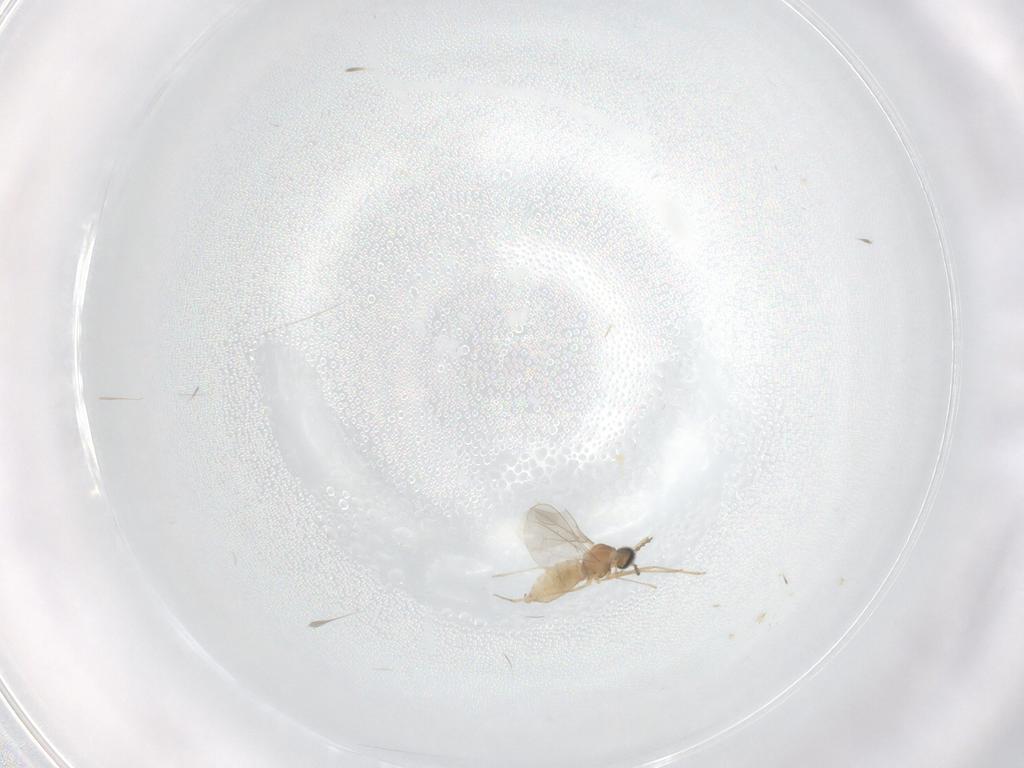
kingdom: Animalia
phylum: Arthropoda
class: Insecta
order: Diptera
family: Cecidomyiidae
